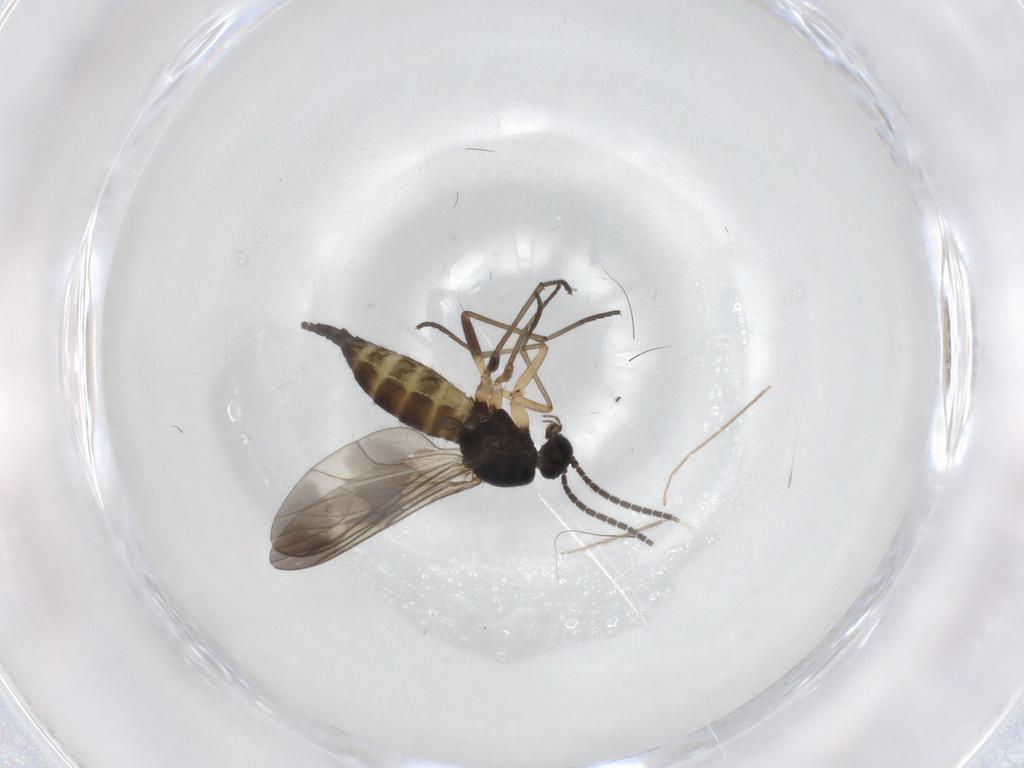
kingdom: Animalia
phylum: Arthropoda
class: Insecta
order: Diptera
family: Sciaridae
